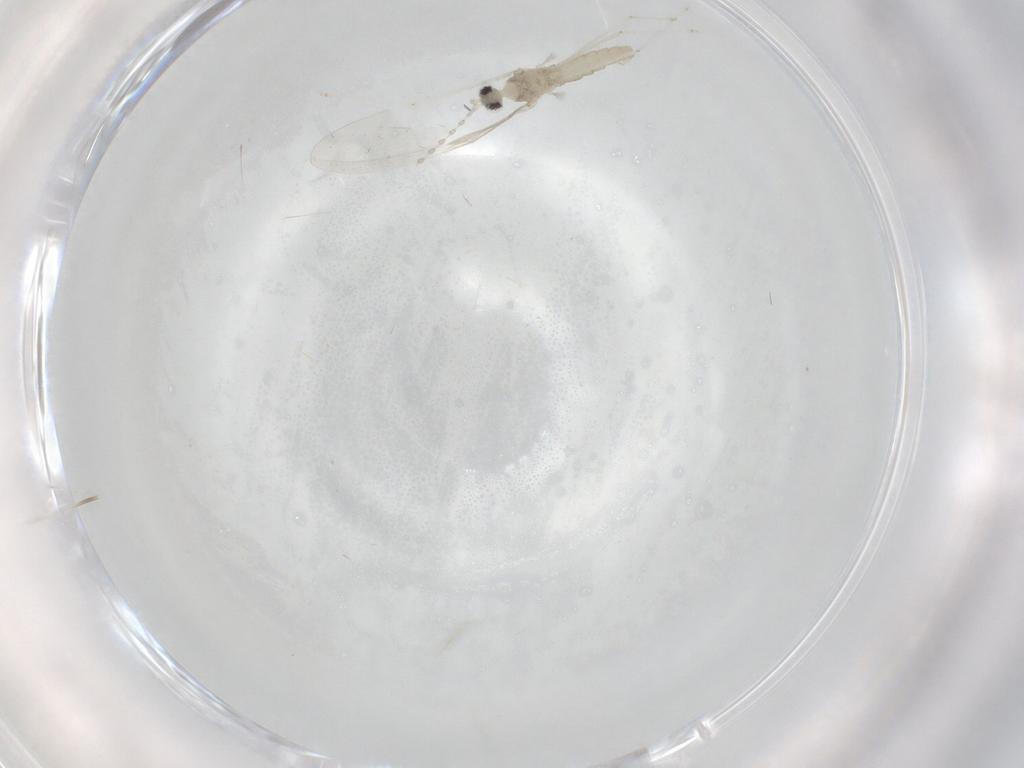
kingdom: Animalia
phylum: Arthropoda
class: Insecta
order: Diptera
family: Cecidomyiidae
